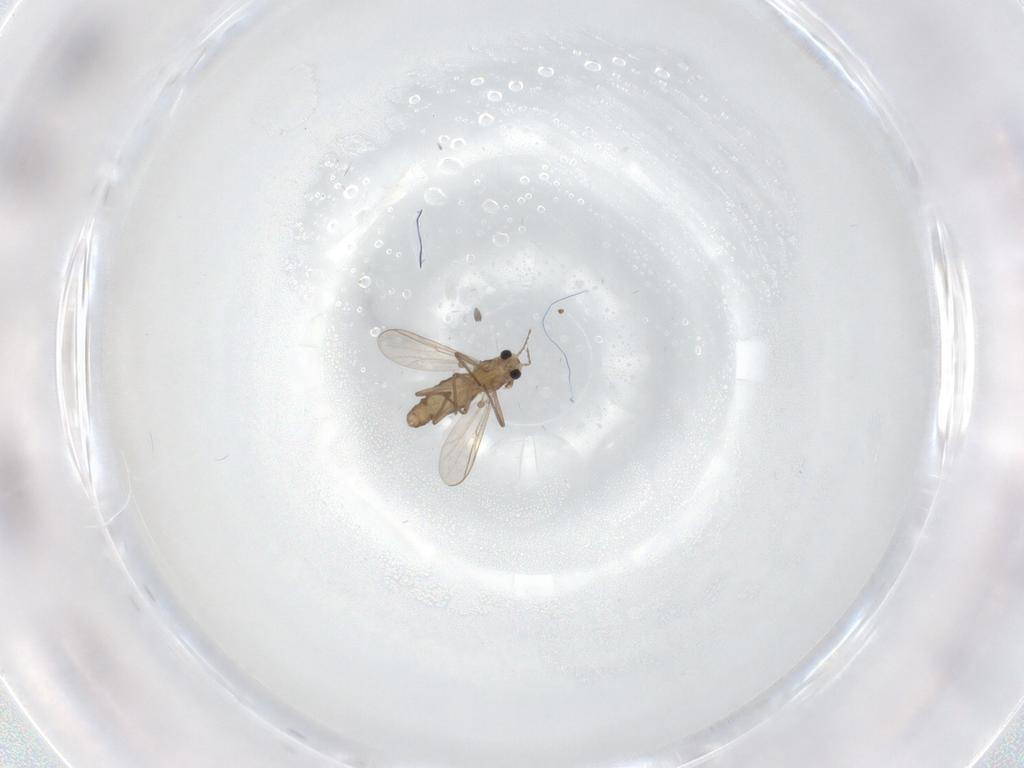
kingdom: Animalia
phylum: Arthropoda
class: Insecta
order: Diptera
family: Chironomidae
